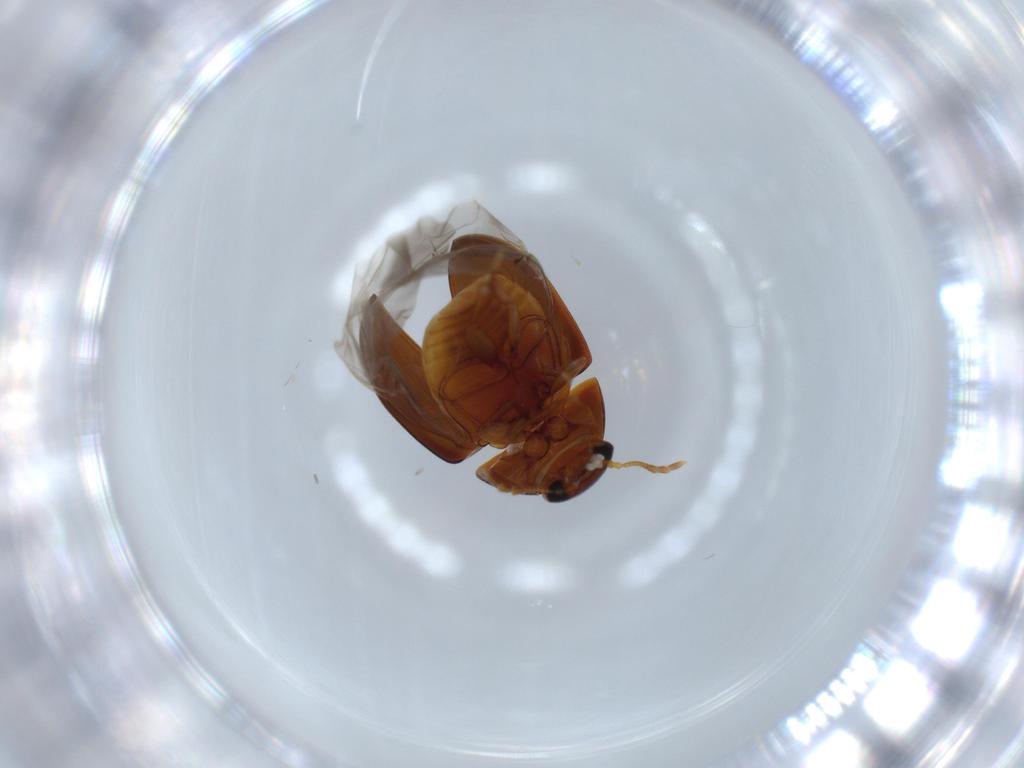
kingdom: Animalia
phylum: Arthropoda
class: Insecta
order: Coleoptera
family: Phalacridae
